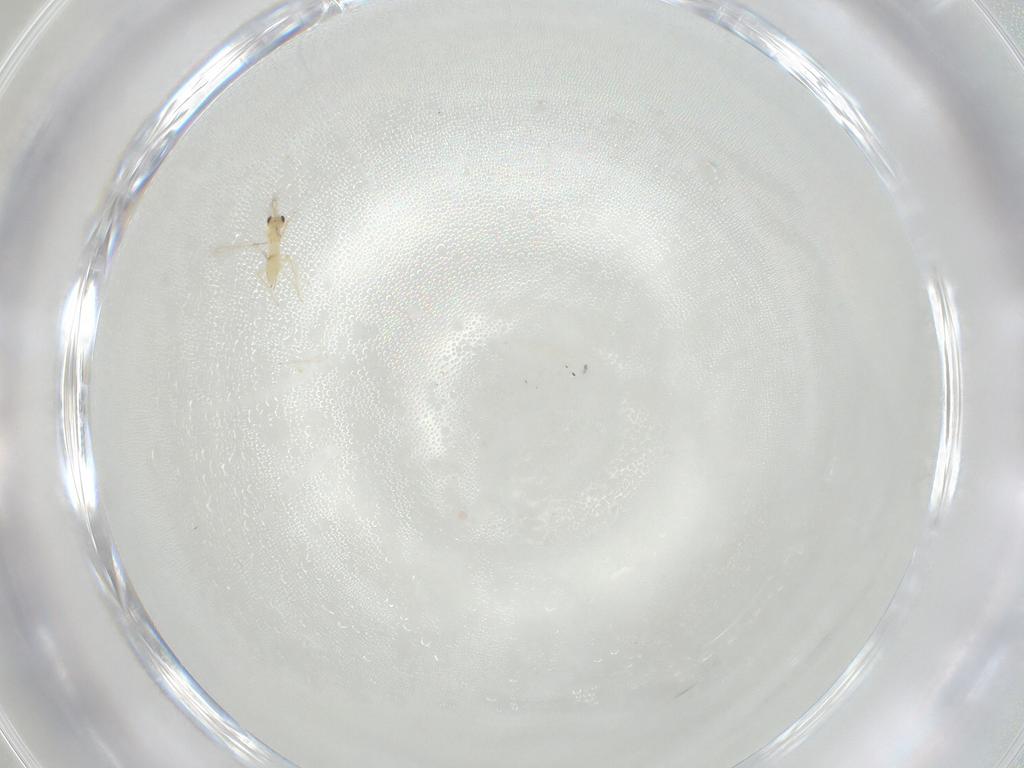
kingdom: Animalia
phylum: Arthropoda
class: Insecta
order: Hymenoptera
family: Mymaridae
